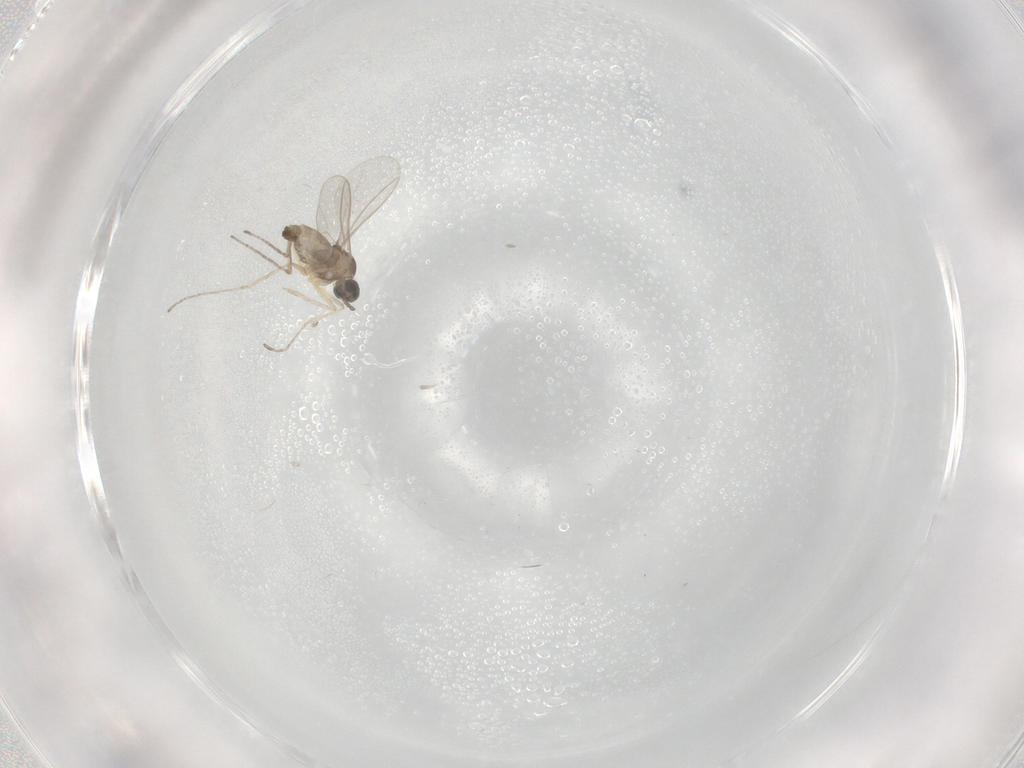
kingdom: Animalia
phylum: Arthropoda
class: Insecta
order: Diptera
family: Cecidomyiidae
